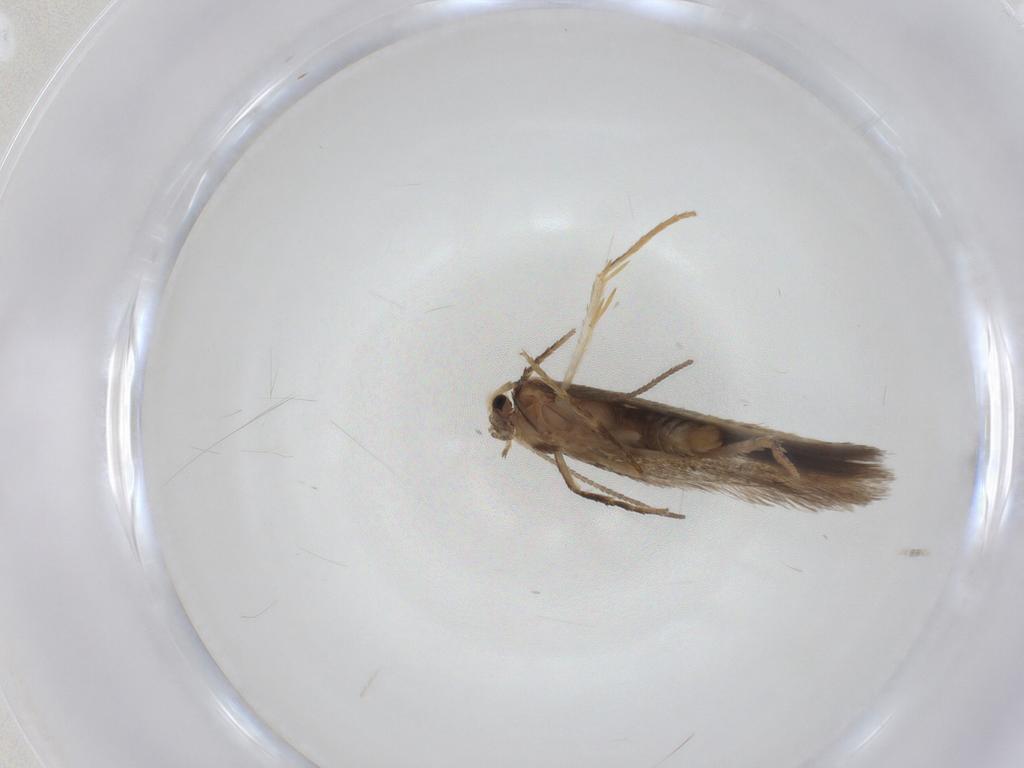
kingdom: Animalia
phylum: Arthropoda
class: Insecta
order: Lepidoptera
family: Nepticulidae
